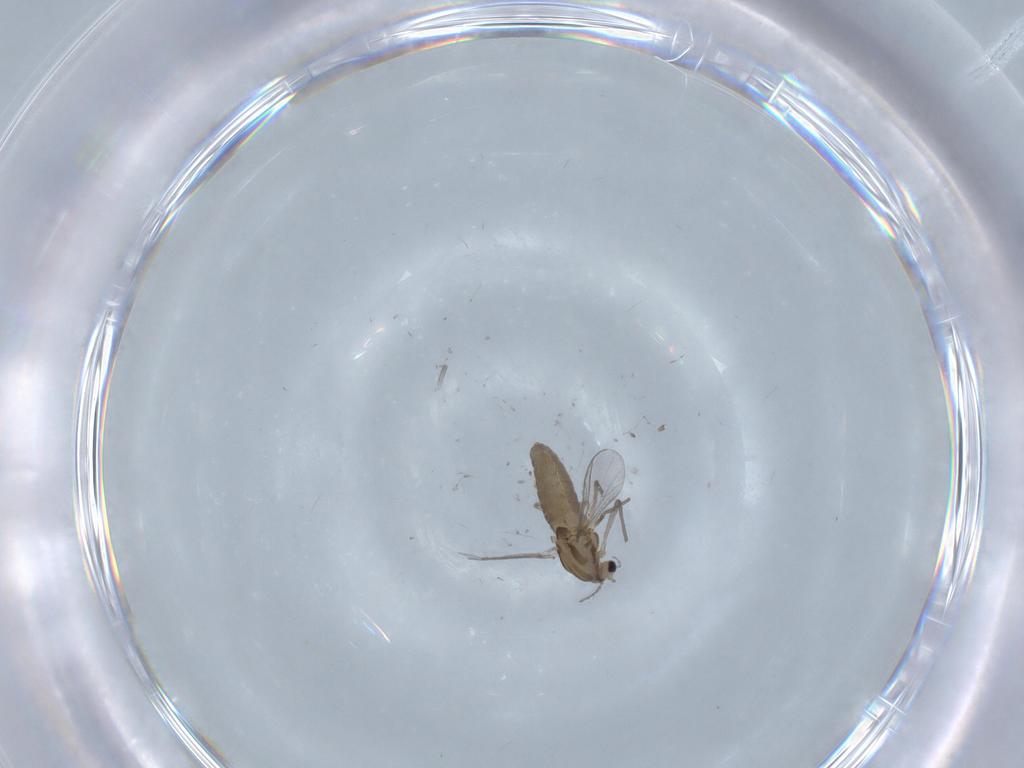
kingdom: Animalia
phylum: Arthropoda
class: Insecta
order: Diptera
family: Chironomidae
